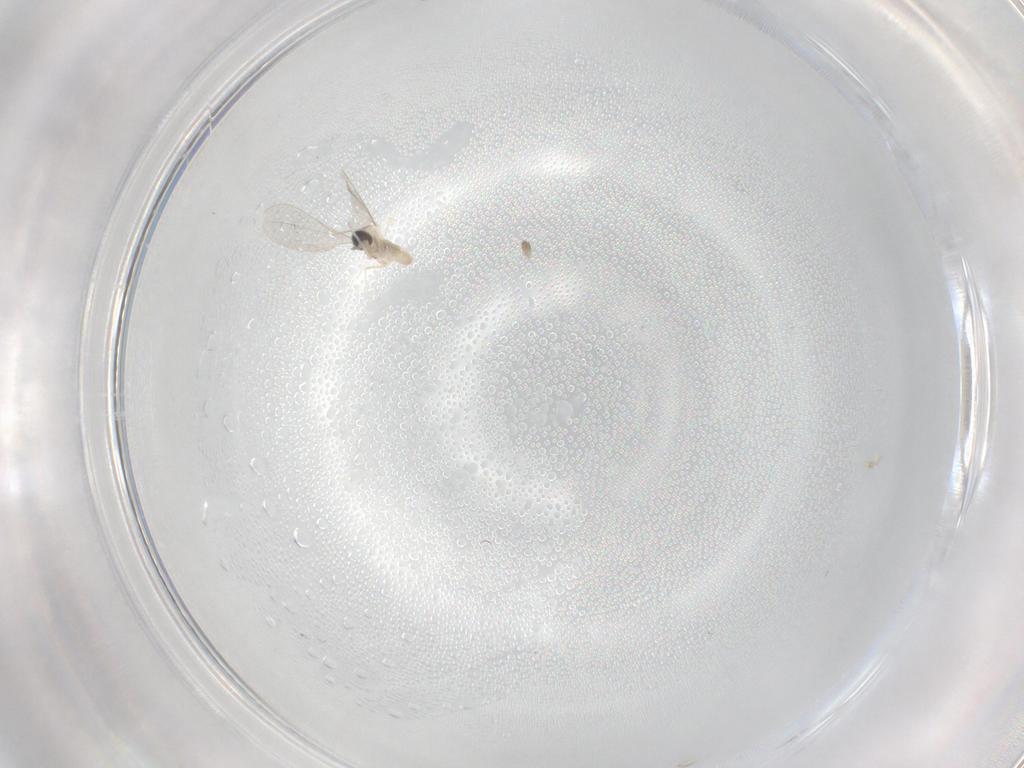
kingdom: Animalia
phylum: Arthropoda
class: Insecta
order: Diptera
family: Cecidomyiidae
